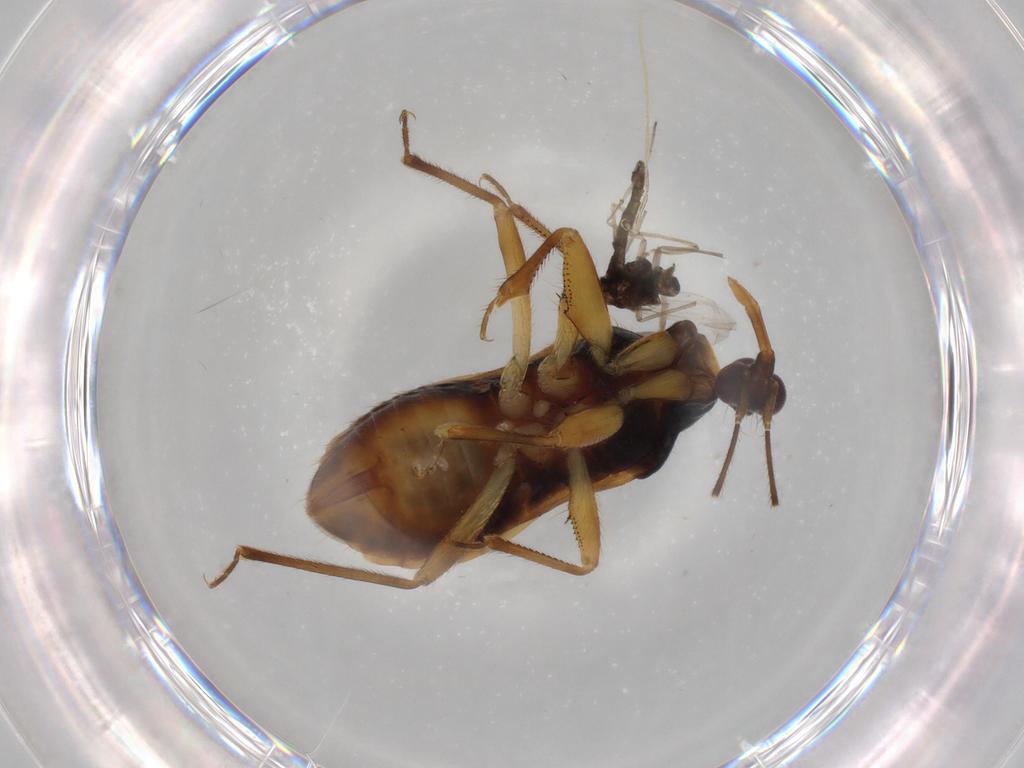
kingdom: Animalia
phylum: Arthropoda
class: Insecta
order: Diptera
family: Chironomidae
